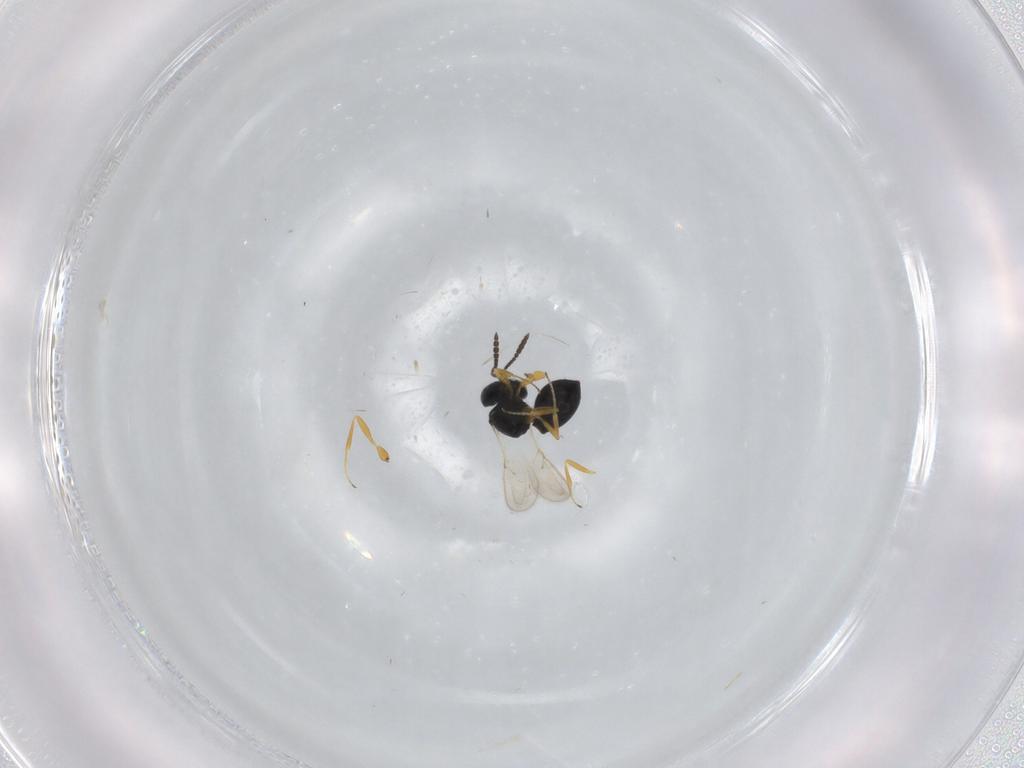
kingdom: Animalia
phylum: Arthropoda
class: Insecta
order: Hymenoptera
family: Scelionidae
